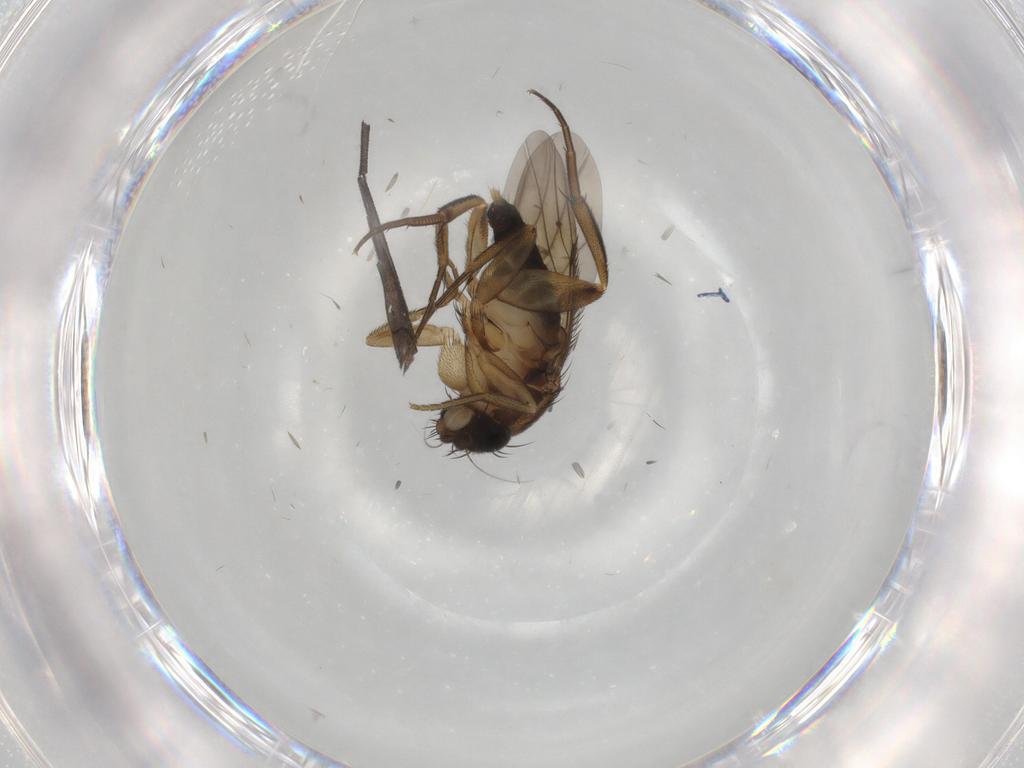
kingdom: Animalia
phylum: Arthropoda
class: Insecta
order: Diptera
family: Phoridae
